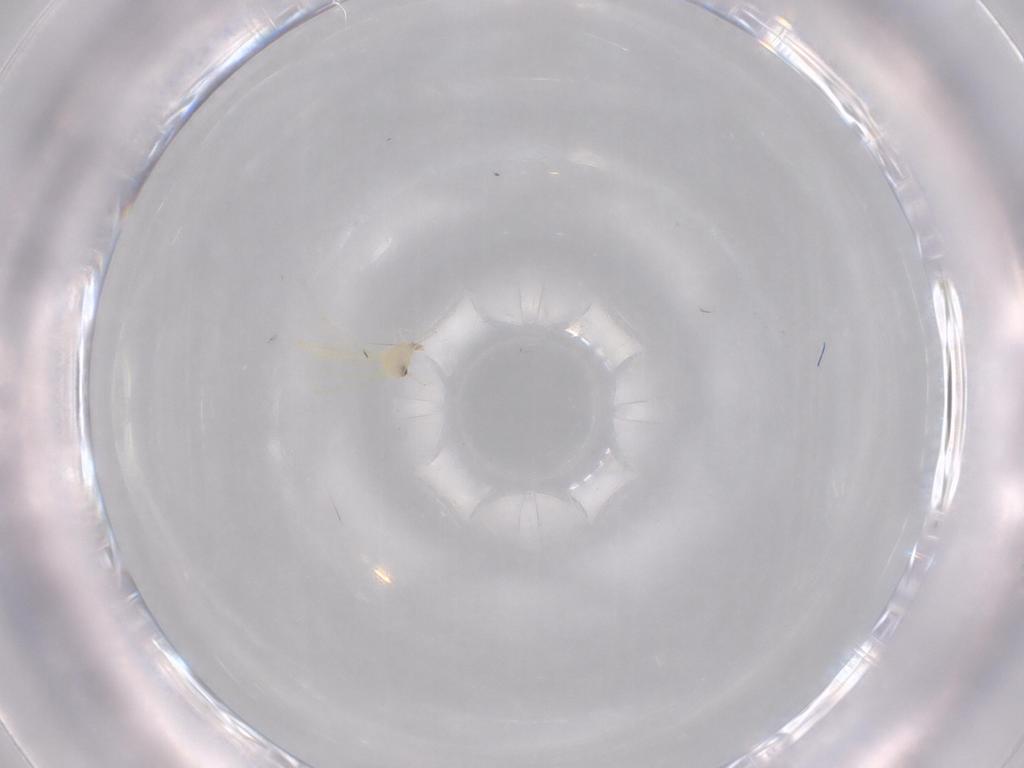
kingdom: Animalia
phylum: Arthropoda
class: Insecta
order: Hemiptera
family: Aleyrodidae
